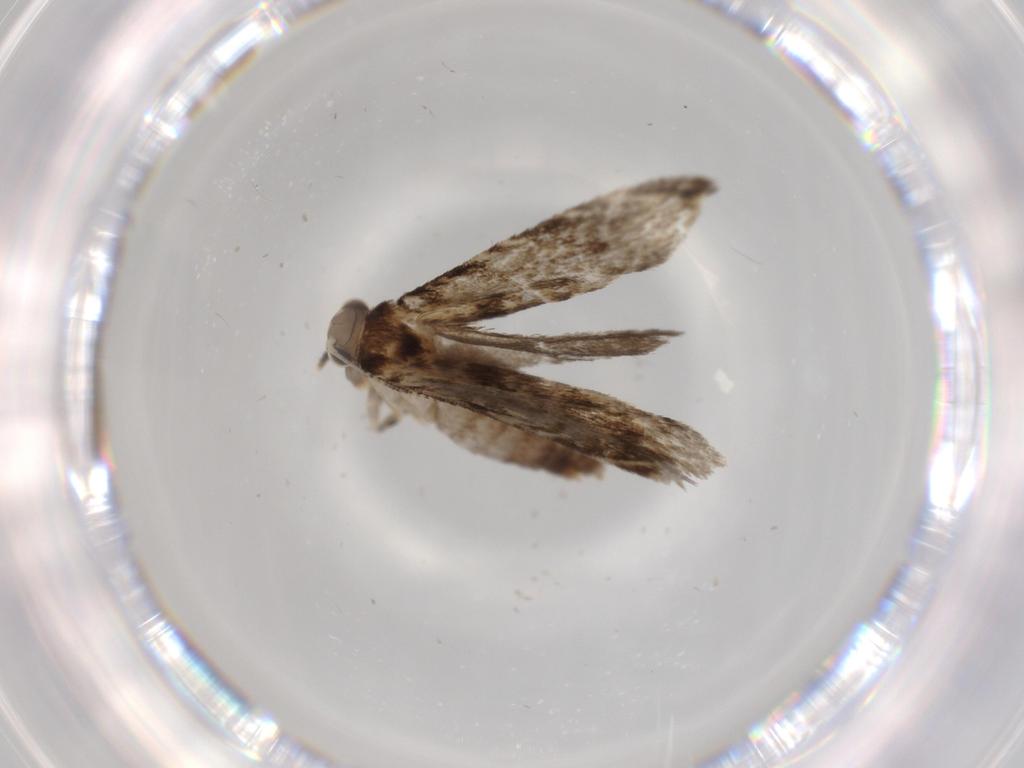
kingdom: Animalia
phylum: Arthropoda
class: Insecta
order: Lepidoptera
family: Tineidae
